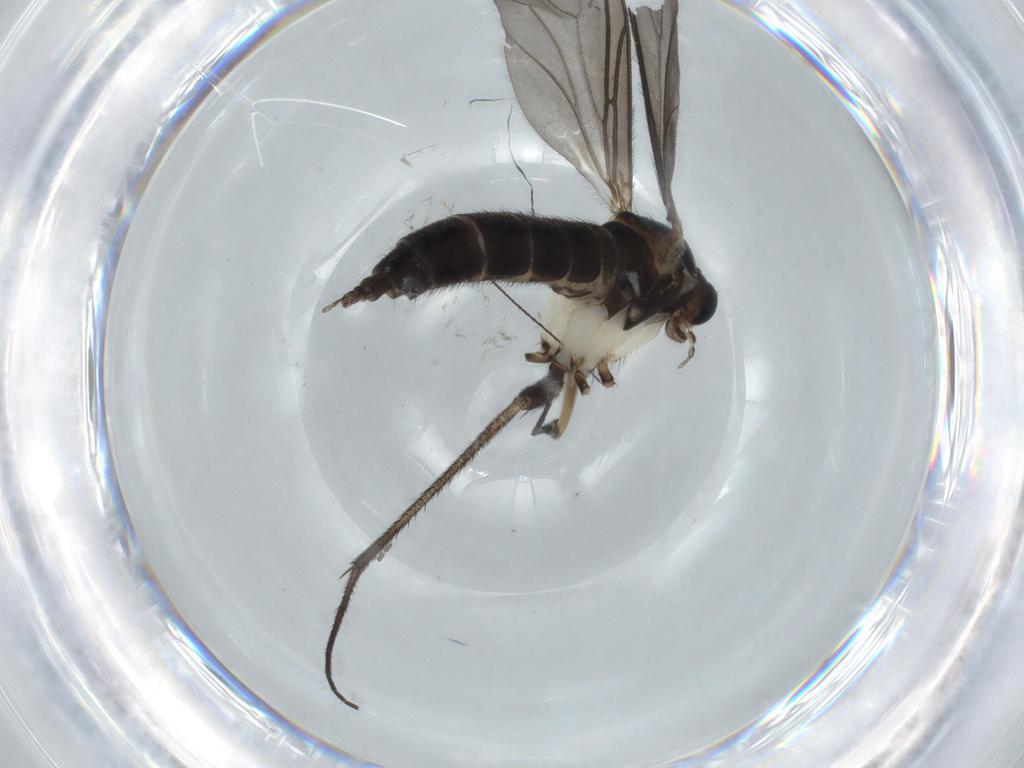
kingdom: Animalia
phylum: Arthropoda
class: Insecta
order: Diptera
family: Sciaridae
